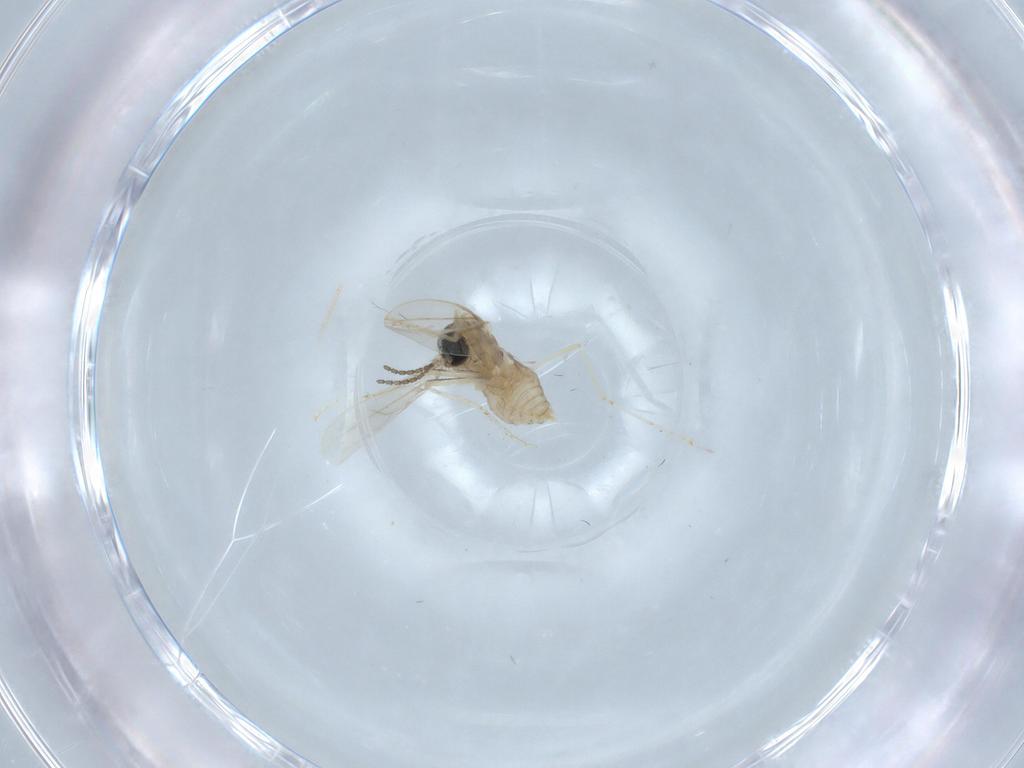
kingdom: Animalia
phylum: Arthropoda
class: Insecta
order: Diptera
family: Cecidomyiidae
